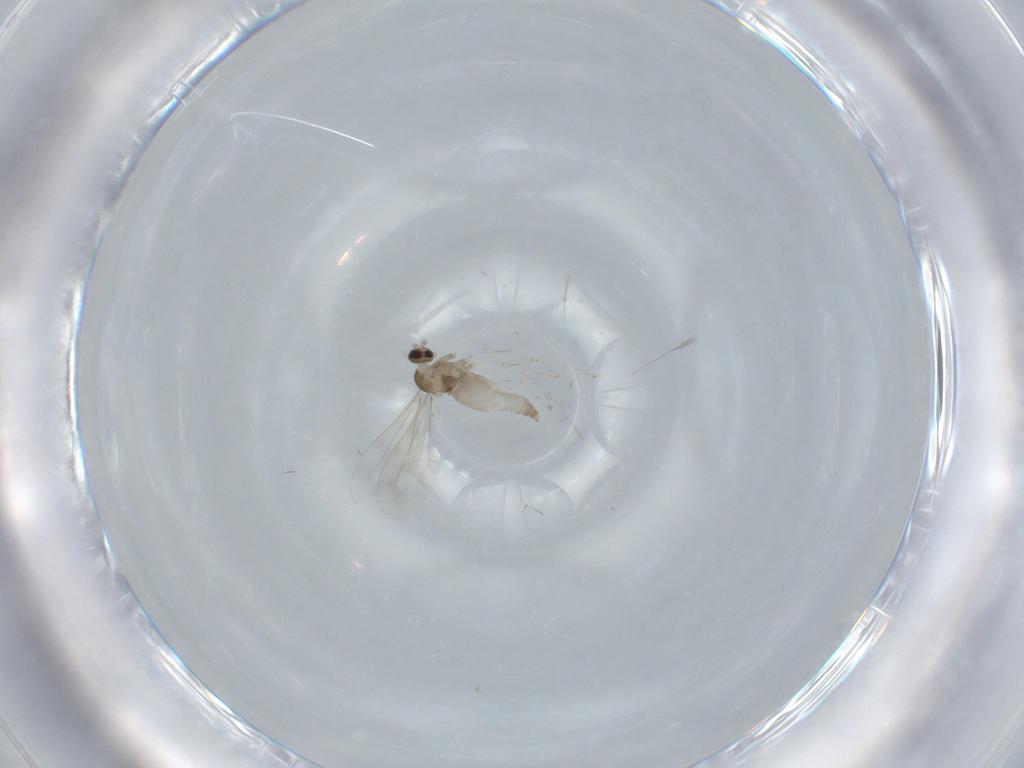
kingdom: Animalia
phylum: Arthropoda
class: Insecta
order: Diptera
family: Cecidomyiidae
